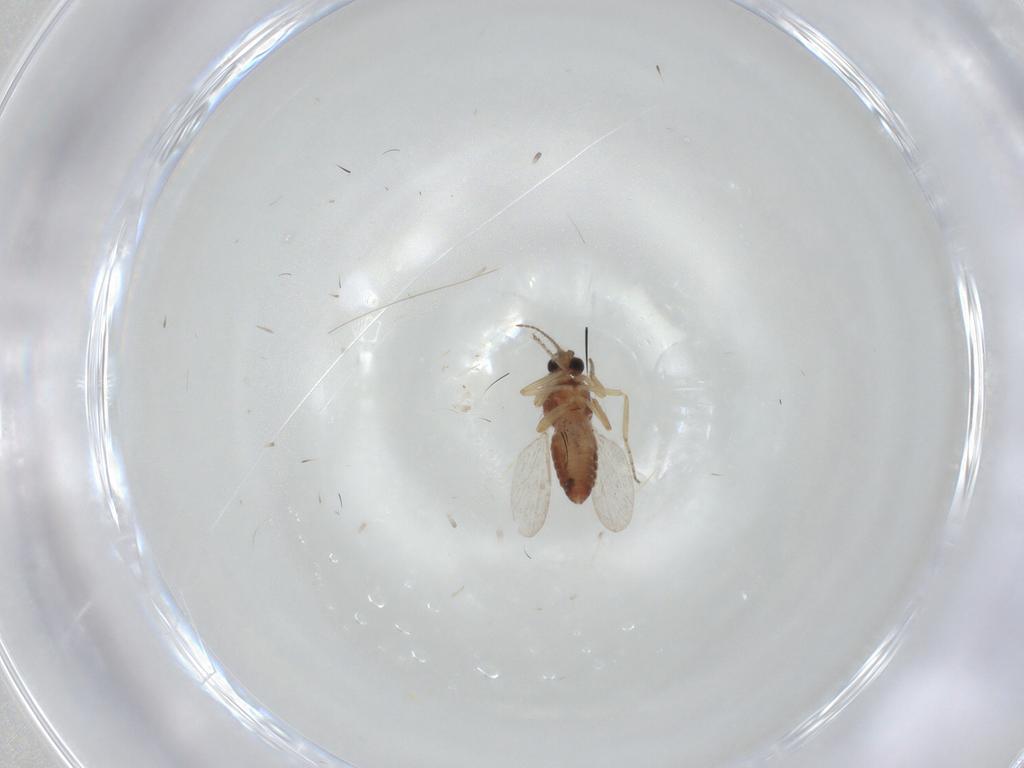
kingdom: Animalia
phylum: Arthropoda
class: Insecta
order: Diptera
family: Ceratopogonidae
